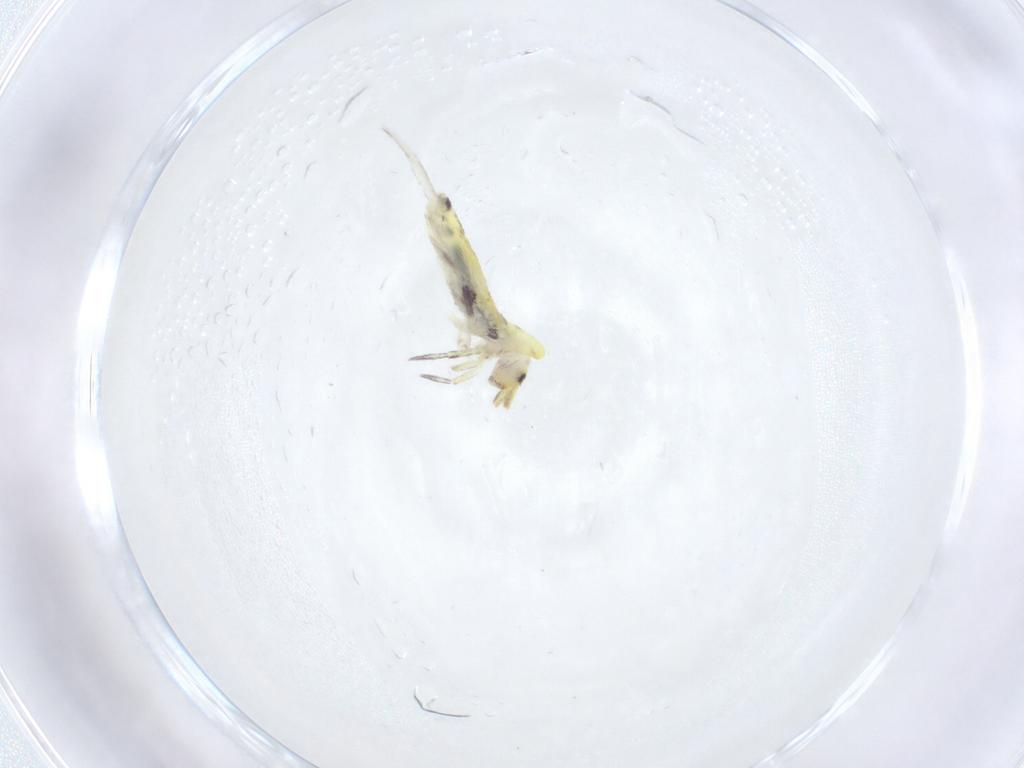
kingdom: Animalia
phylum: Arthropoda
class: Collembola
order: Entomobryomorpha
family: Entomobryidae
